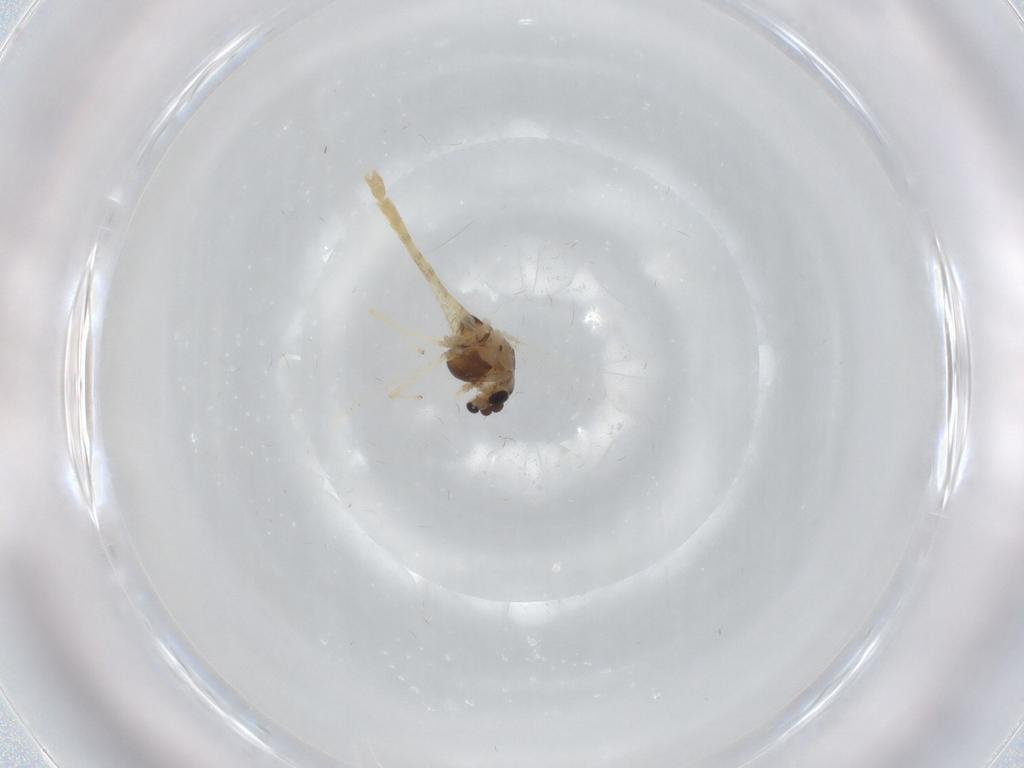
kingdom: Animalia
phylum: Arthropoda
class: Insecta
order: Diptera
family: Chironomidae
